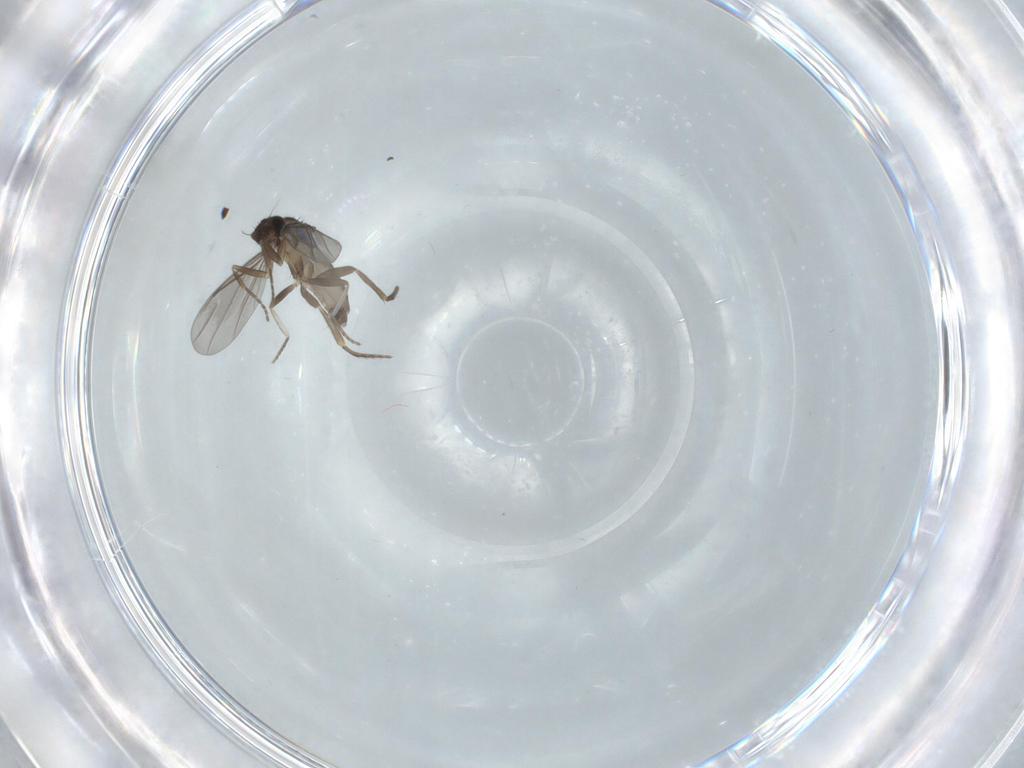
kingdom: Animalia
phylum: Arthropoda
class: Insecta
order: Diptera
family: Phoridae
